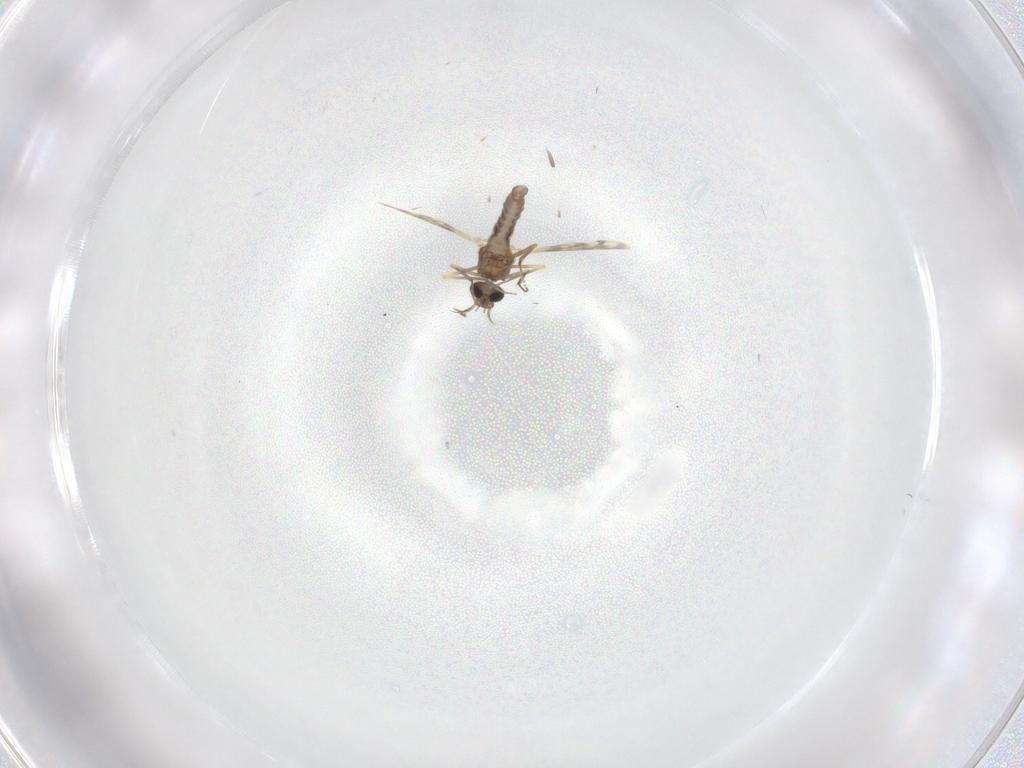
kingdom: Animalia
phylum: Arthropoda
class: Insecta
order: Diptera
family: Ceratopogonidae
